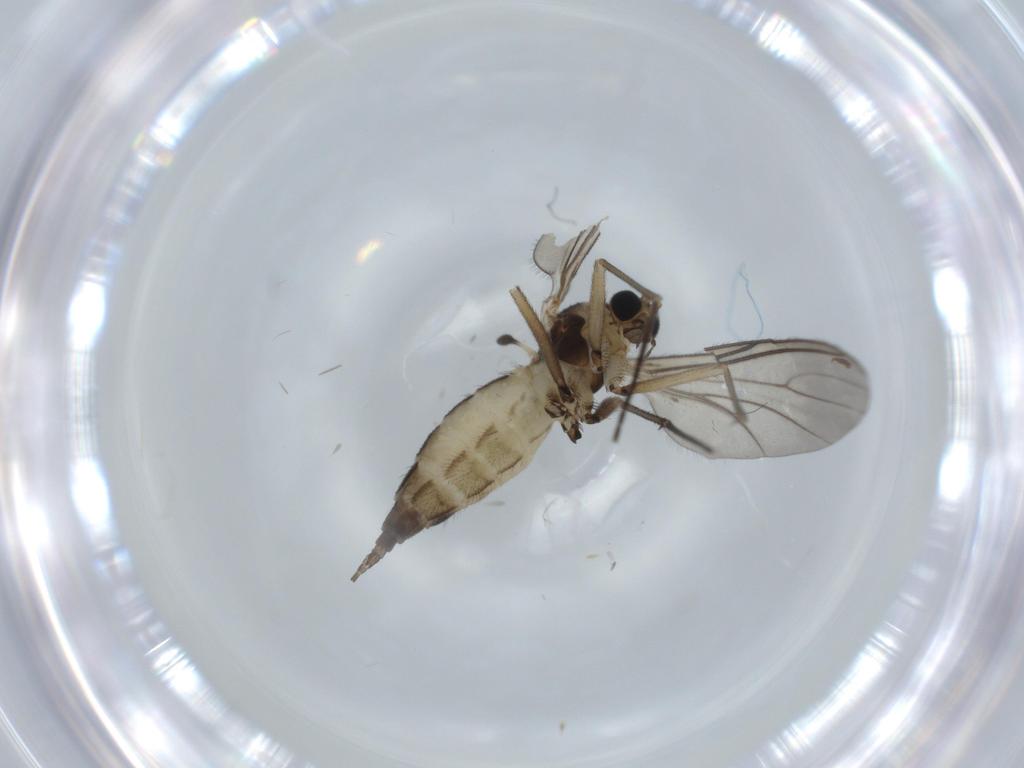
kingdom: Animalia
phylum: Arthropoda
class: Insecta
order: Diptera
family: Sciaridae
